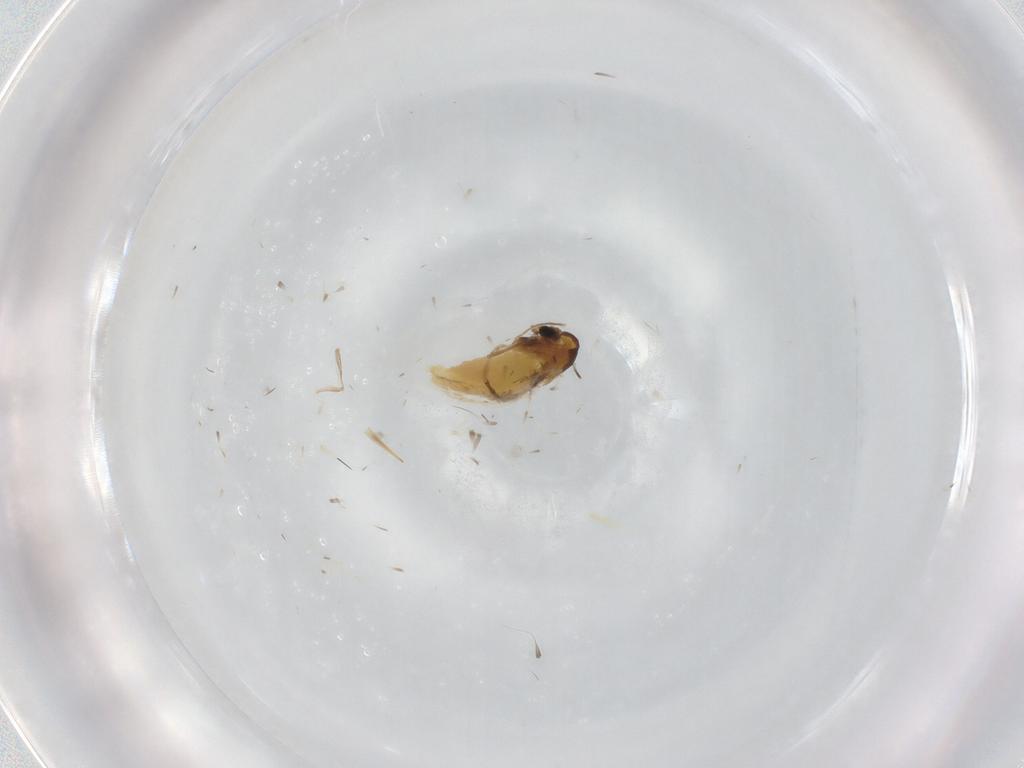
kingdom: Animalia
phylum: Arthropoda
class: Insecta
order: Diptera
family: Chironomidae
